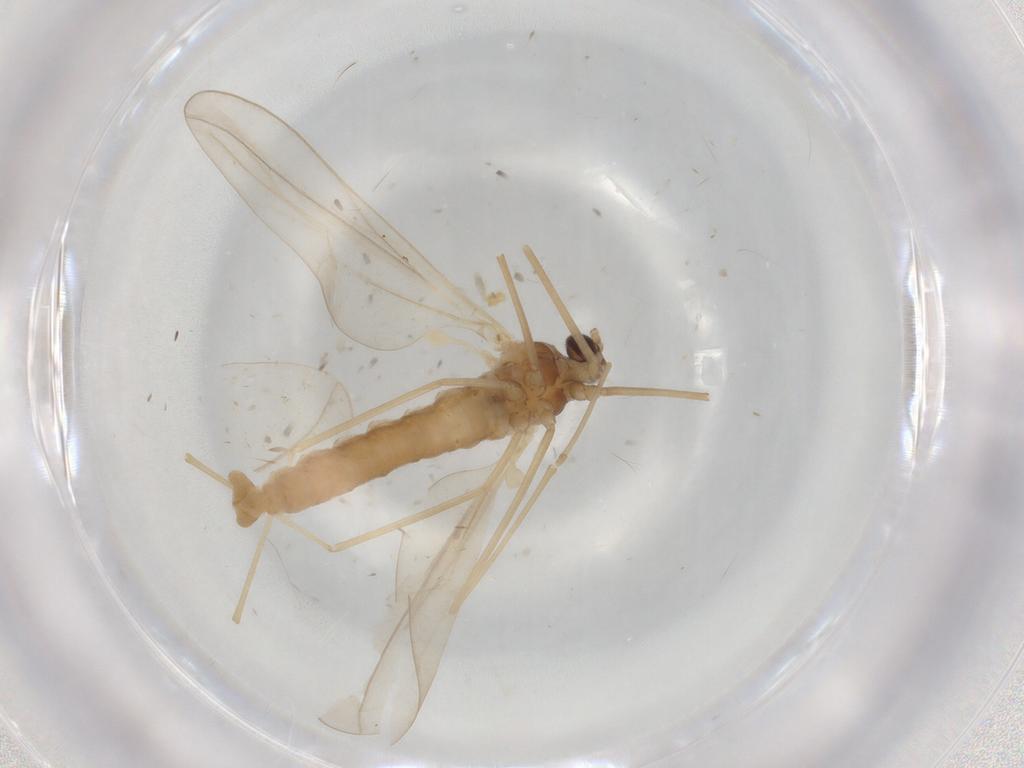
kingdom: Animalia
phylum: Arthropoda
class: Insecta
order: Diptera
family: Cecidomyiidae
